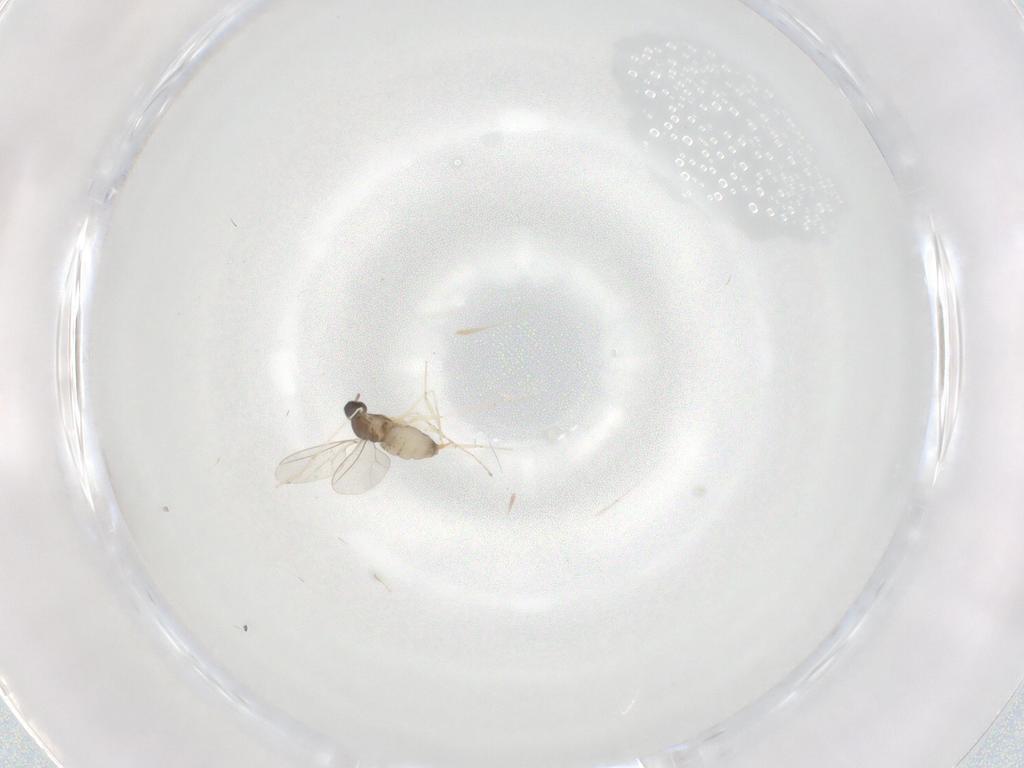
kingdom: Animalia
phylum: Arthropoda
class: Insecta
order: Diptera
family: Cecidomyiidae
